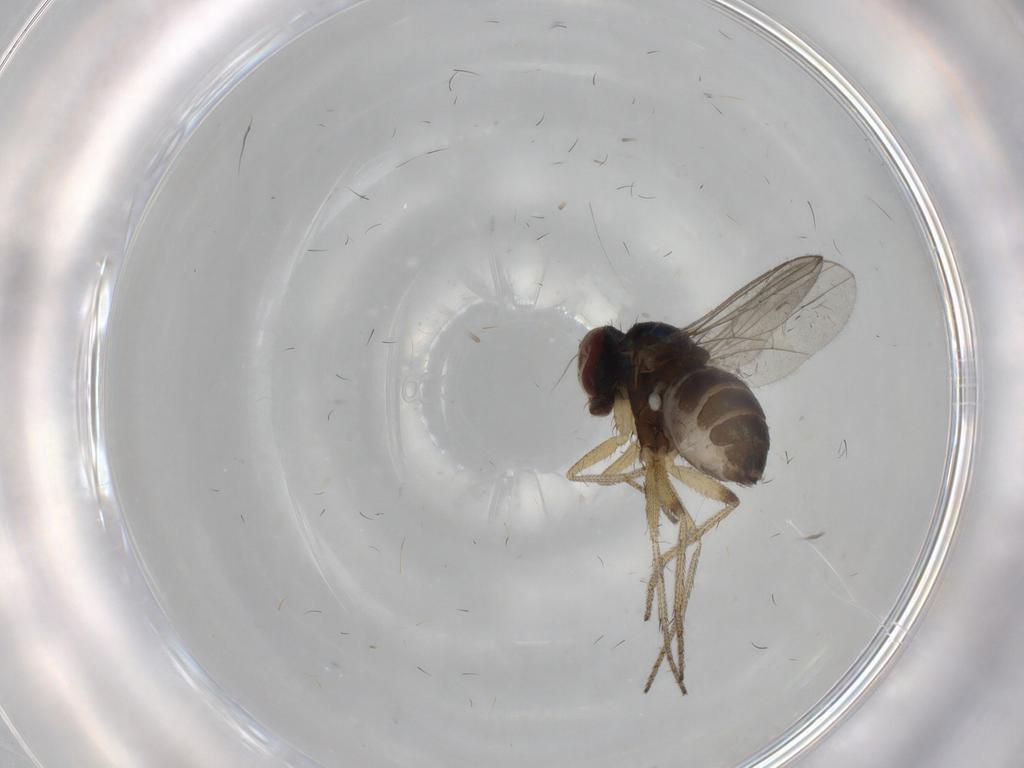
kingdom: Animalia
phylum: Arthropoda
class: Insecta
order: Diptera
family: Dolichopodidae
